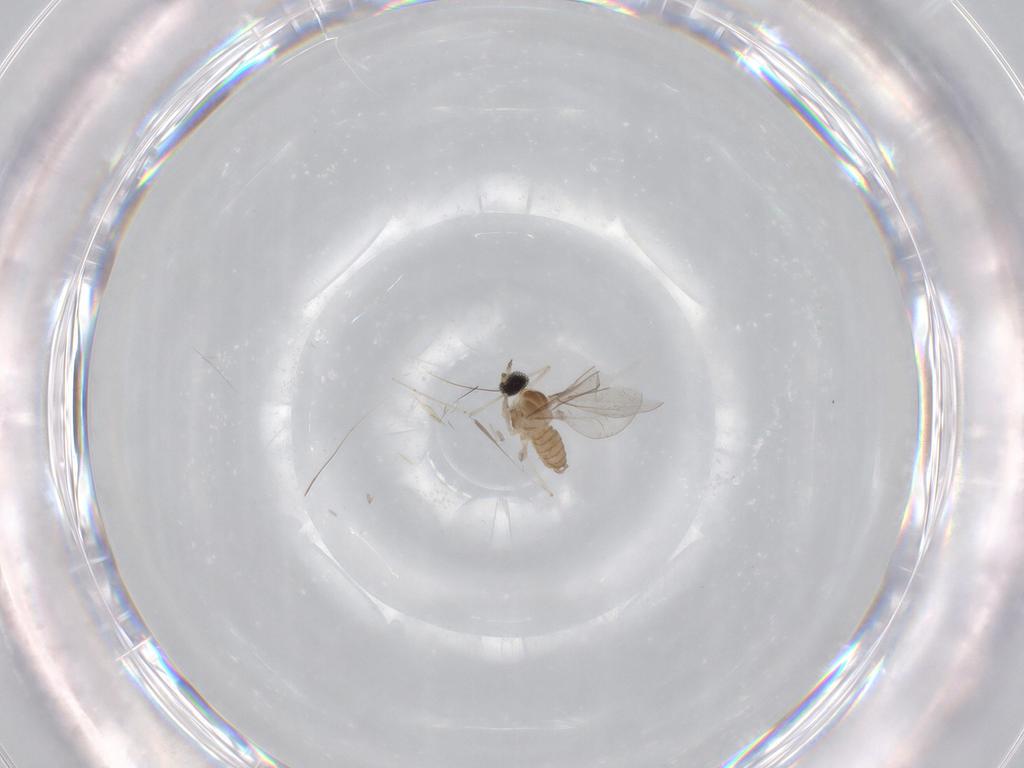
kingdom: Animalia
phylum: Arthropoda
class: Insecta
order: Diptera
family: Cecidomyiidae
